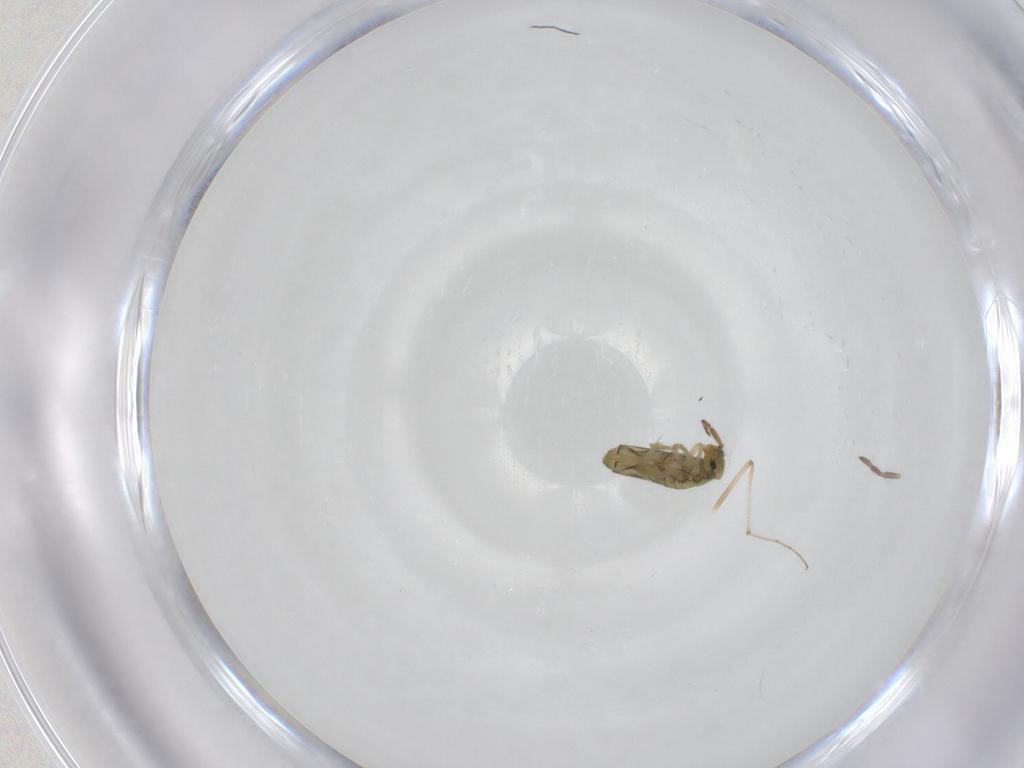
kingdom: Animalia
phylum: Arthropoda
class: Collembola
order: Entomobryomorpha
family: Entomobryidae
